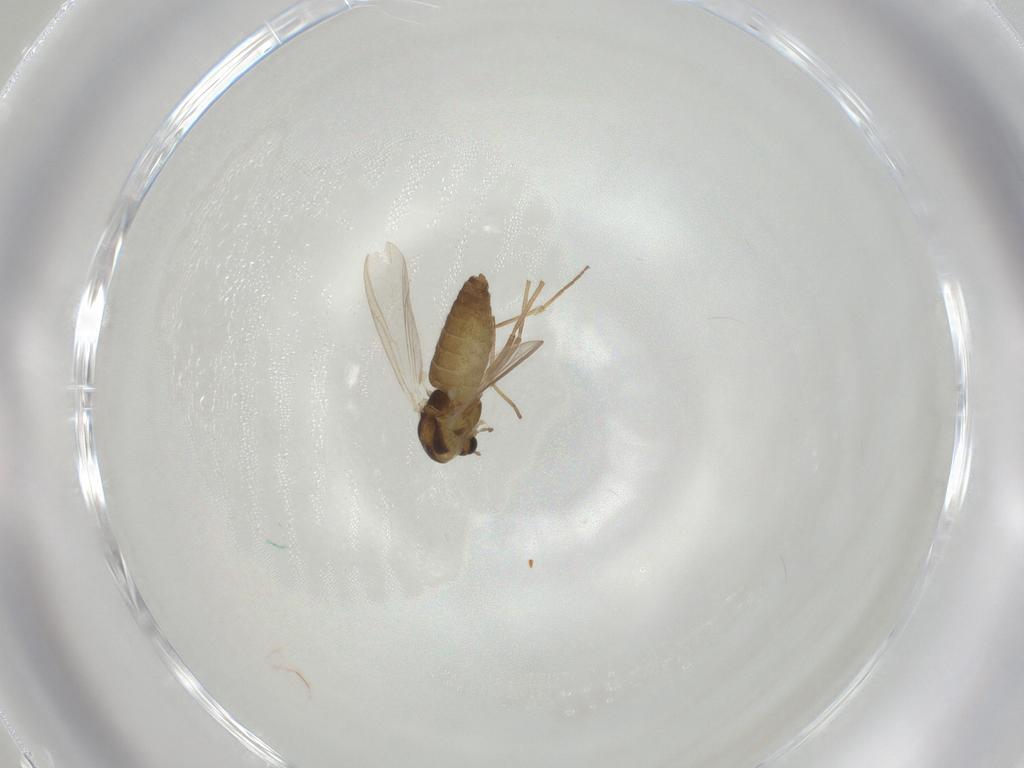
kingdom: Animalia
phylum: Arthropoda
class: Insecta
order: Diptera
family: Chironomidae
